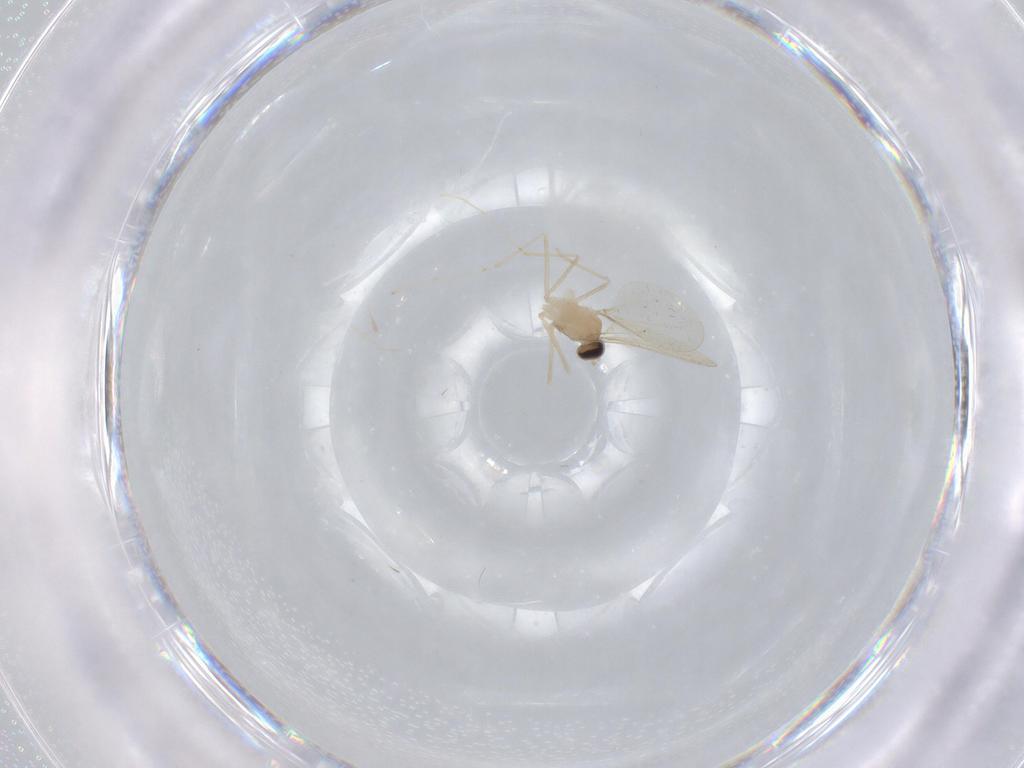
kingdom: Animalia
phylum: Arthropoda
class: Insecta
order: Diptera
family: Cecidomyiidae
